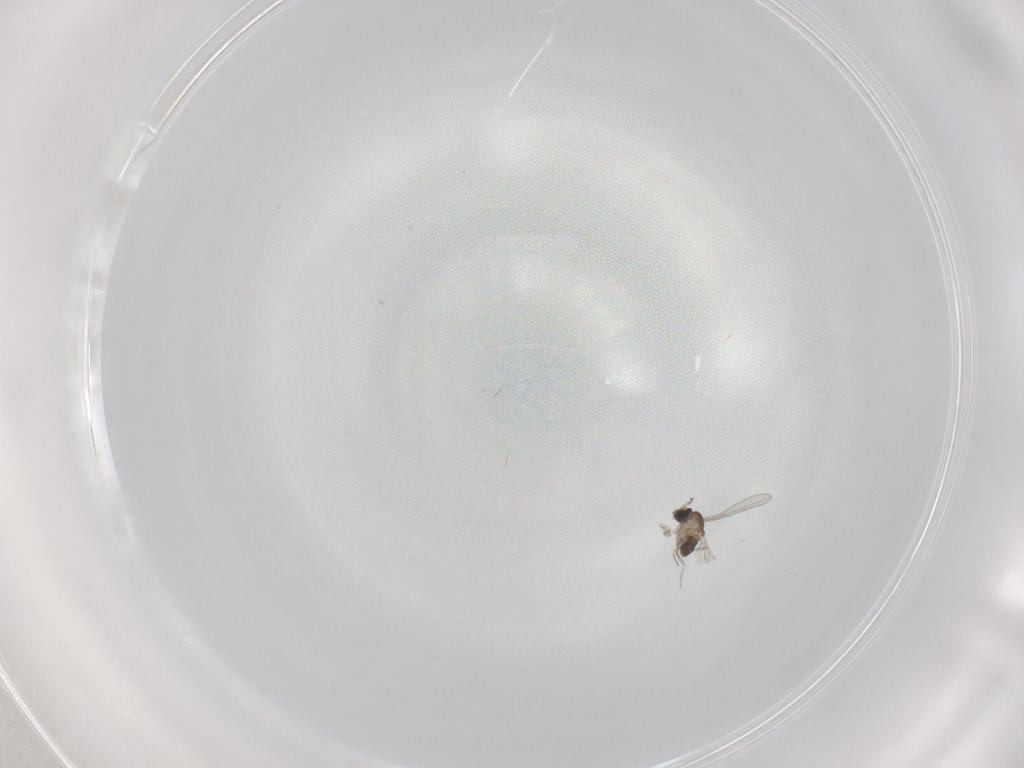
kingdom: Animalia
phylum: Arthropoda
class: Insecta
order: Diptera
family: Cecidomyiidae
